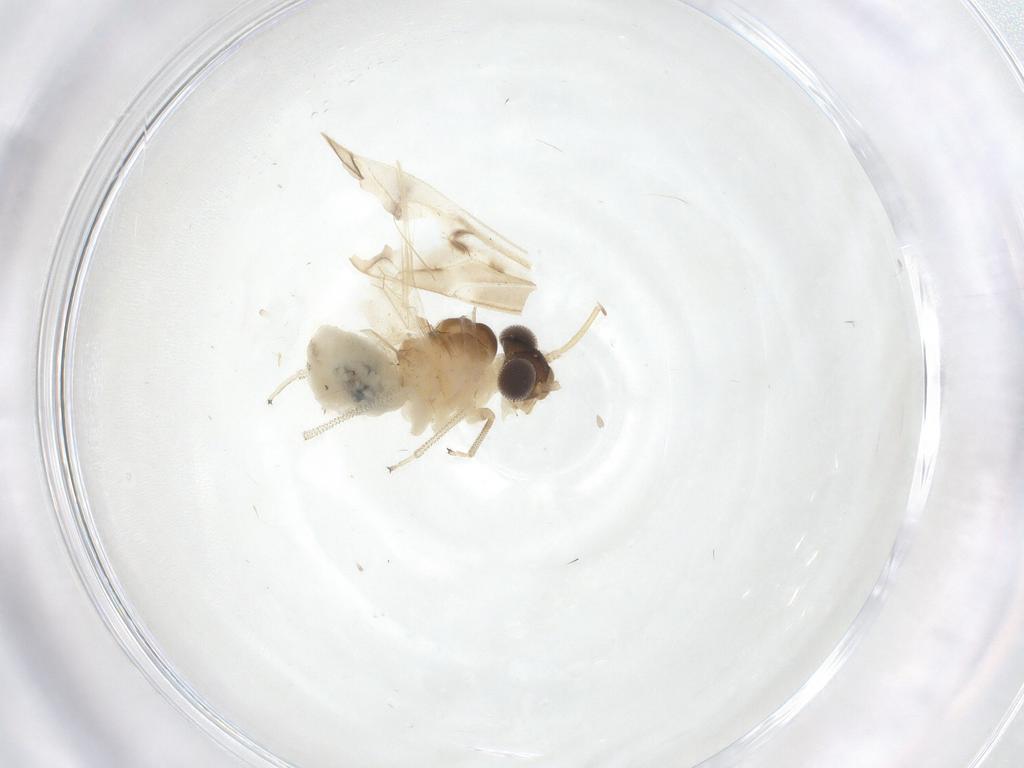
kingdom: Animalia
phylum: Arthropoda
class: Insecta
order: Psocodea
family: Caeciliusidae
